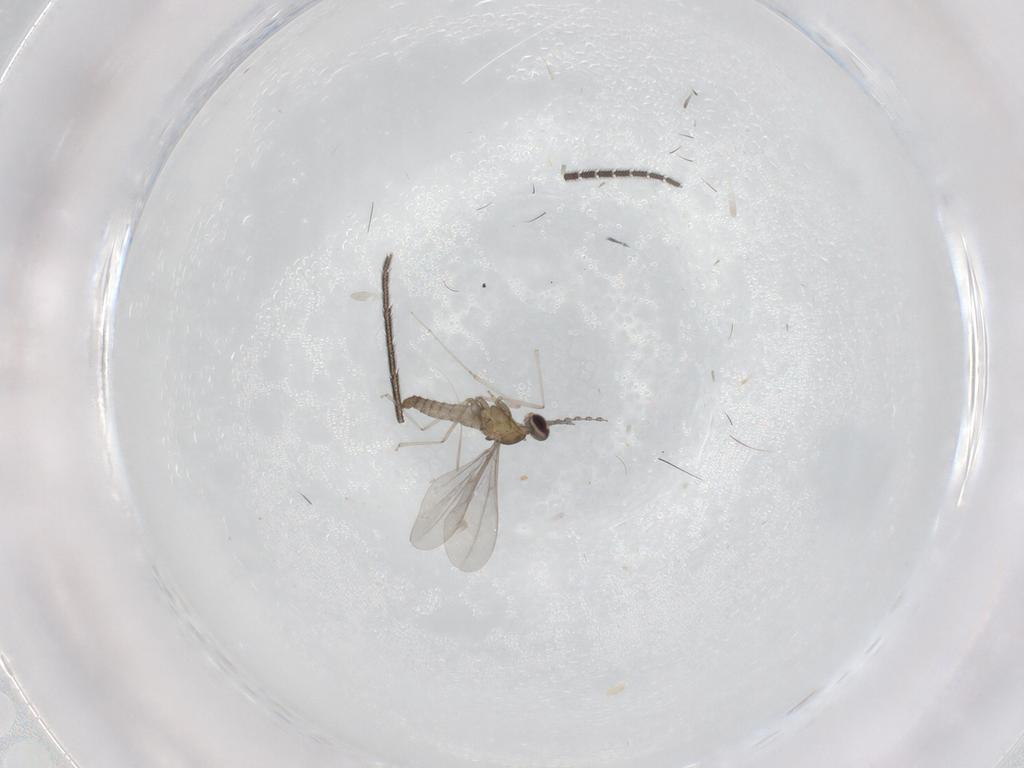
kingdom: Animalia
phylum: Arthropoda
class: Insecta
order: Diptera
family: Sciaridae
